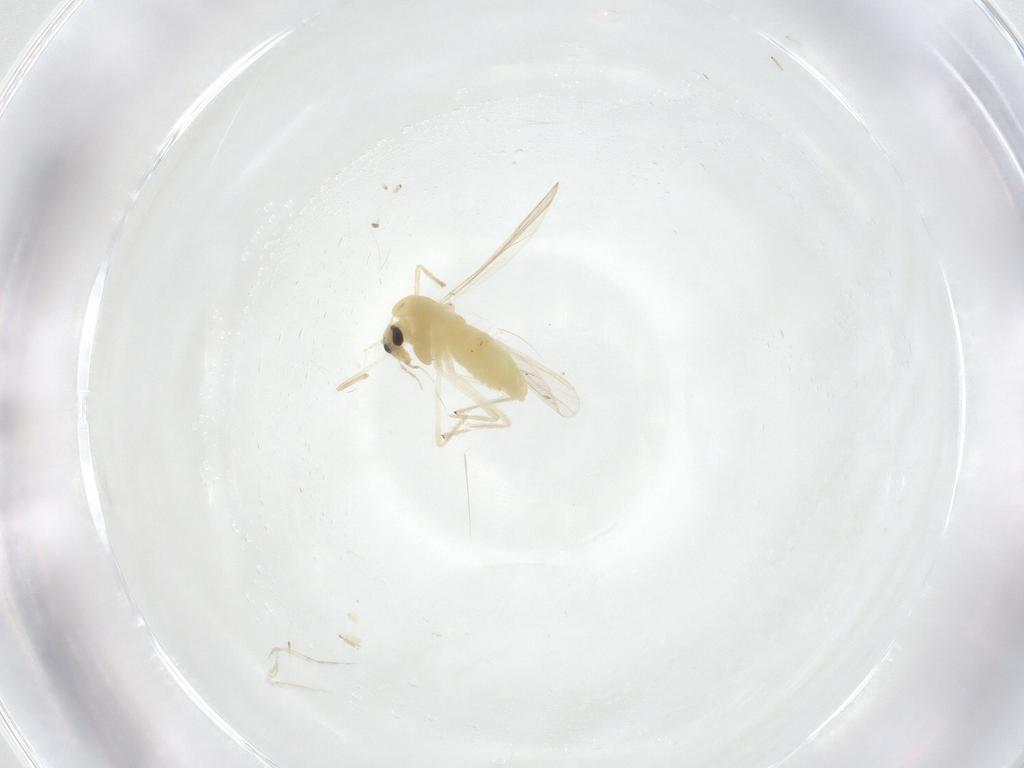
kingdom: Animalia
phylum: Arthropoda
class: Insecta
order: Diptera
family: Chironomidae
